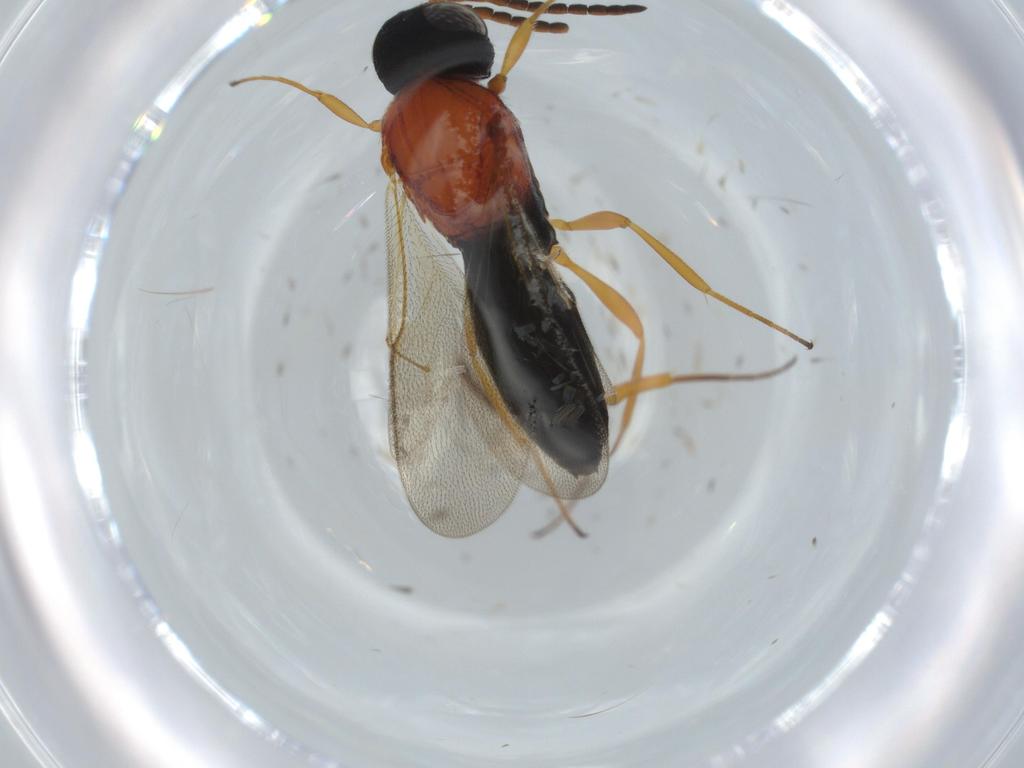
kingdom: Animalia
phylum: Arthropoda
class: Insecta
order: Hymenoptera
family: Scelionidae
